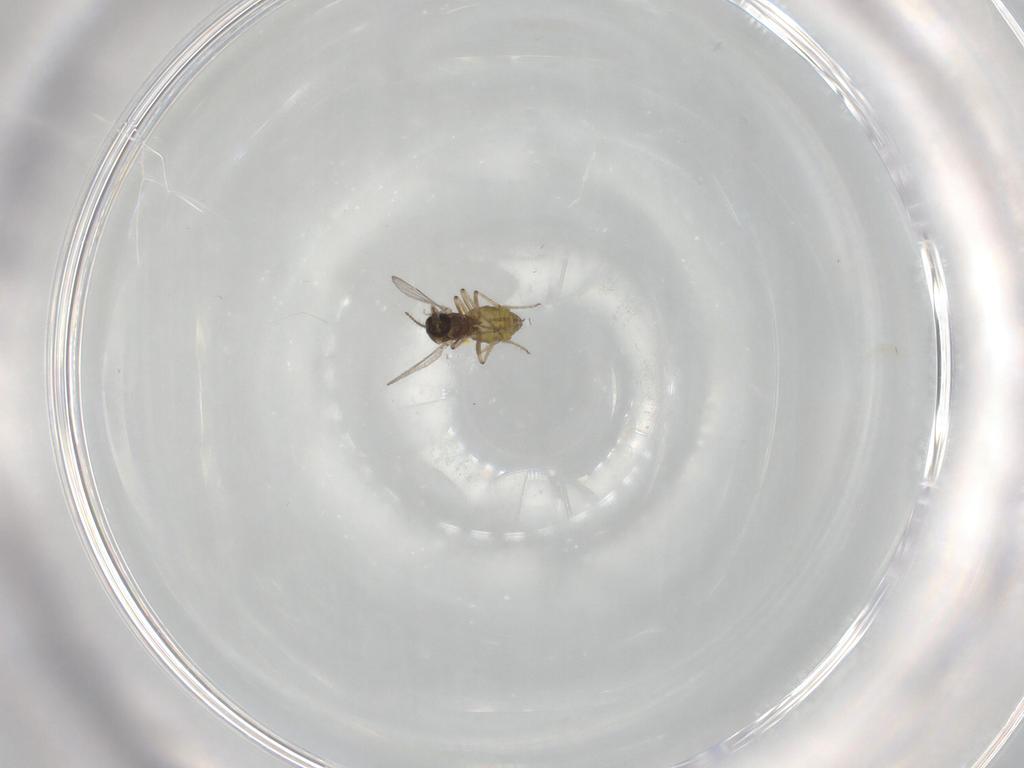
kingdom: Animalia
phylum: Arthropoda
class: Insecta
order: Diptera
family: Ceratopogonidae
